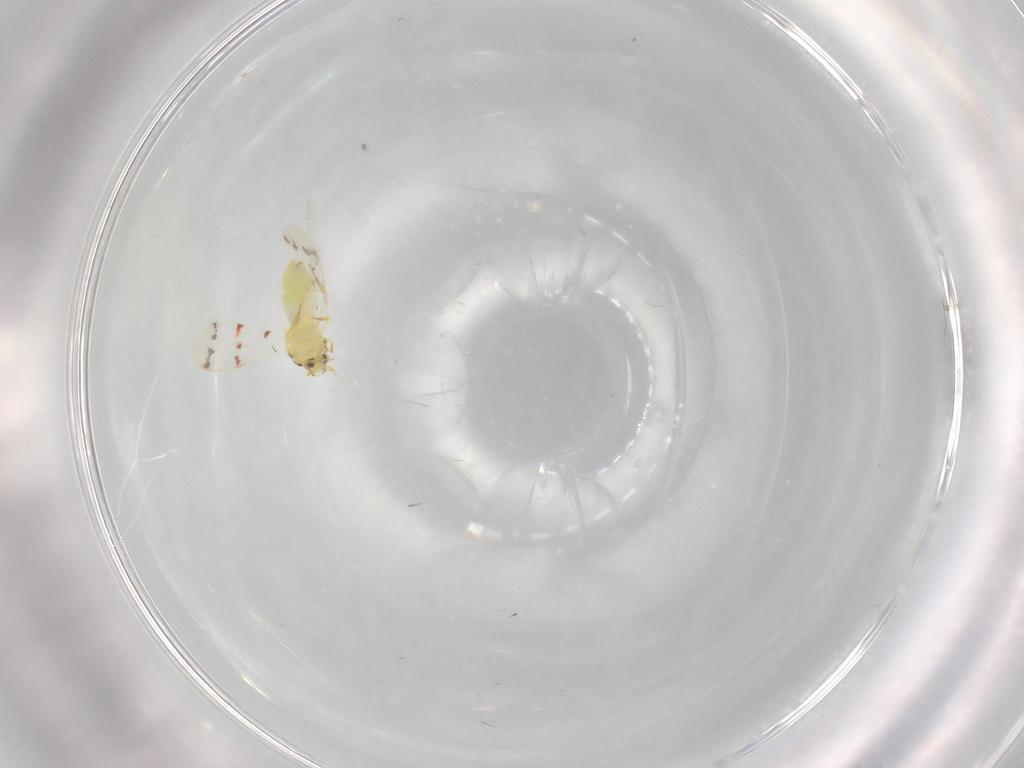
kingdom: Animalia
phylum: Arthropoda
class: Insecta
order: Hemiptera
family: Aleyrodidae
